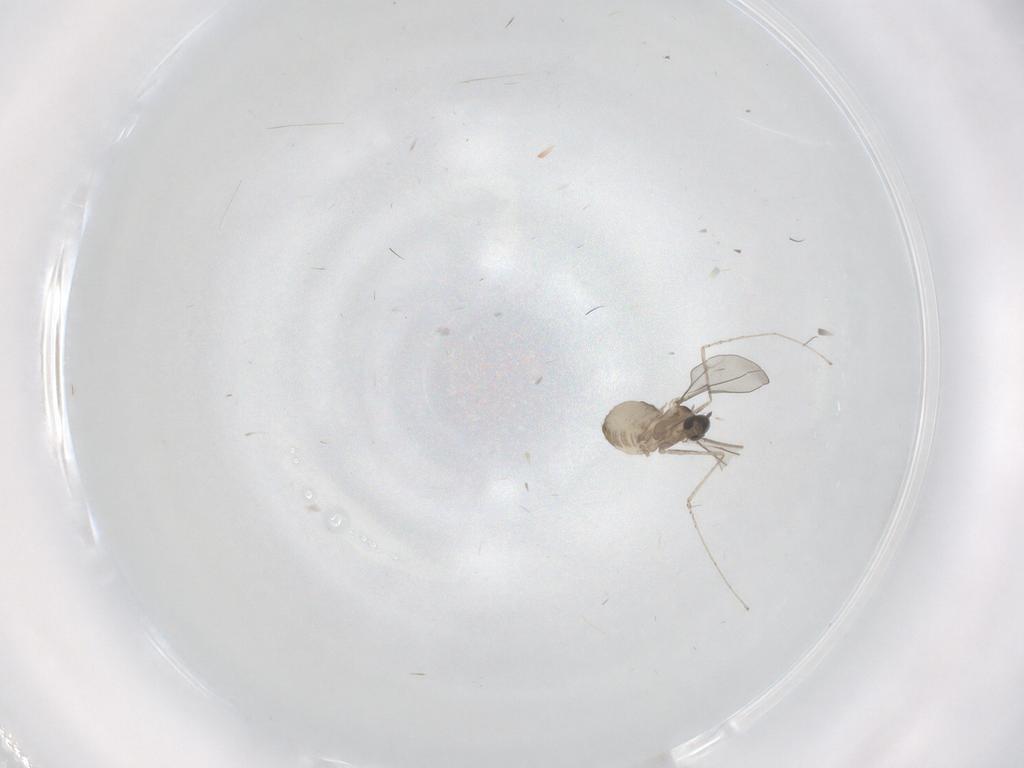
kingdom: Animalia
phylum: Arthropoda
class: Insecta
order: Diptera
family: Cecidomyiidae
